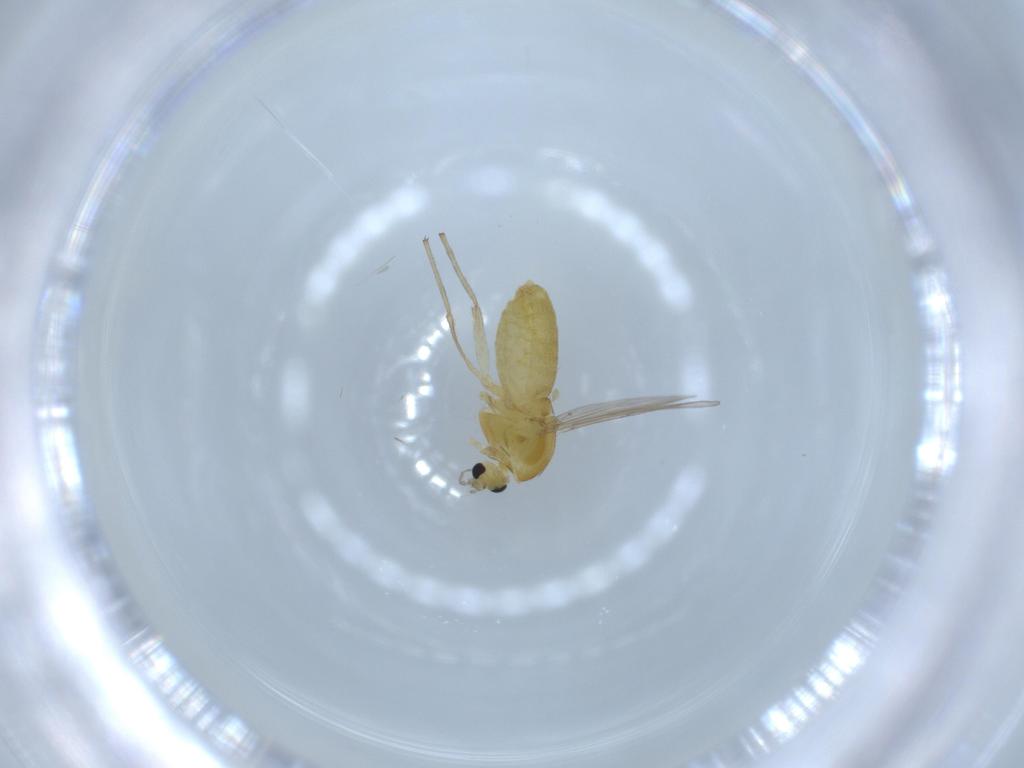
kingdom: Animalia
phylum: Arthropoda
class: Insecta
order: Diptera
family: Chironomidae
